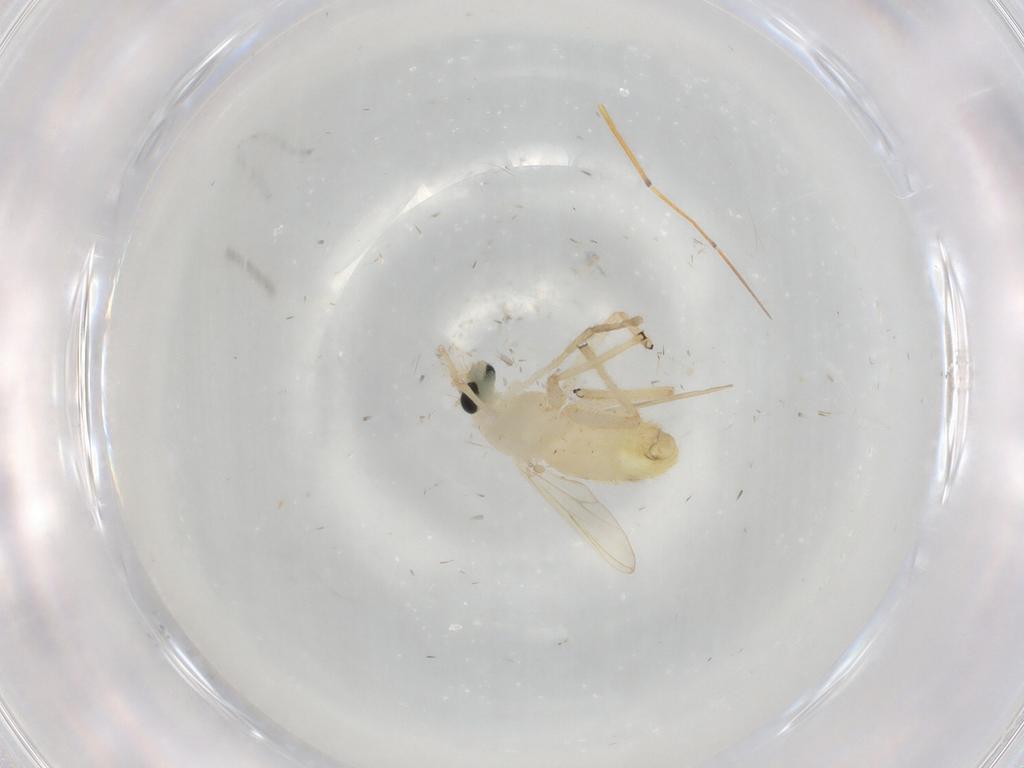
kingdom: Animalia
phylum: Arthropoda
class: Insecta
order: Diptera
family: Chironomidae
